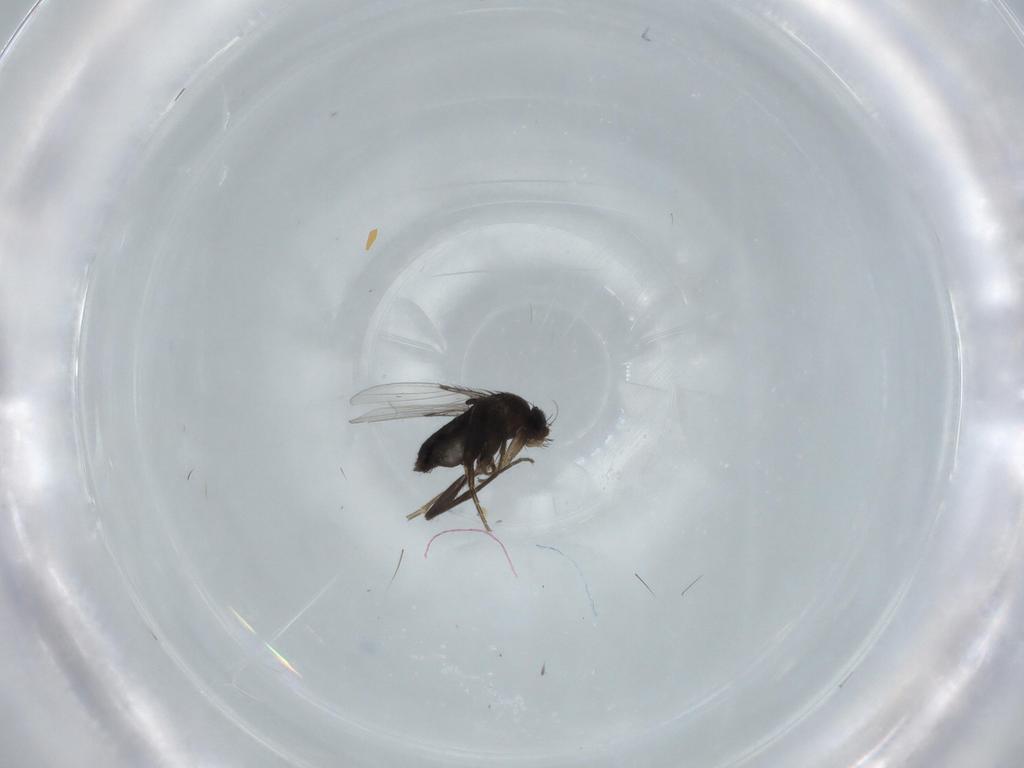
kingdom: Animalia
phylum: Arthropoda
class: Insecta
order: Diptera
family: Phoridae
